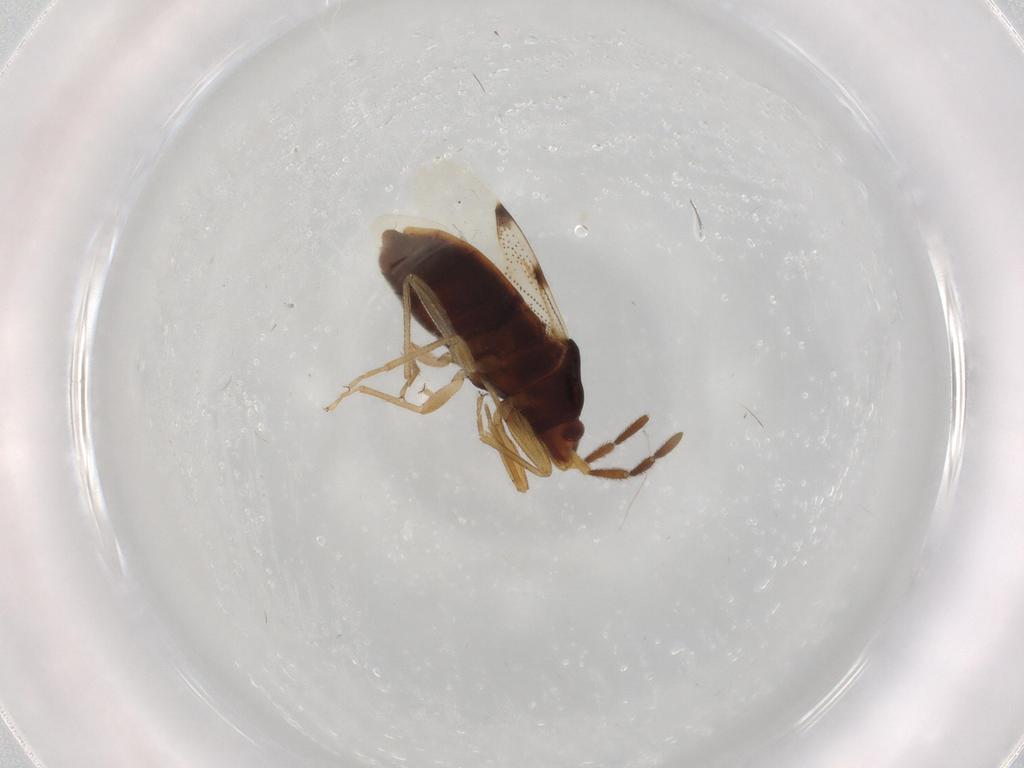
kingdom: Animalia
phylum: Arthropoda
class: Insecta
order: Hemiptera
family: Rhyparochromidae
